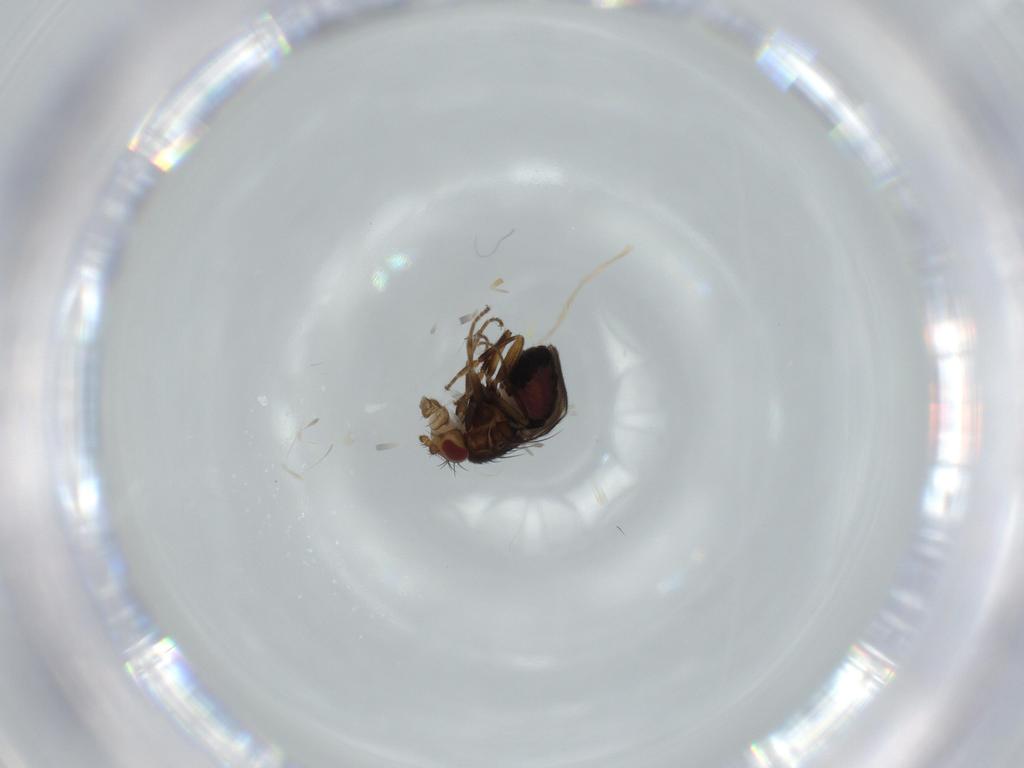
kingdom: Animalia
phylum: Arthropoda
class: Insecta
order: Diptera
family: Sphaeroceridae
